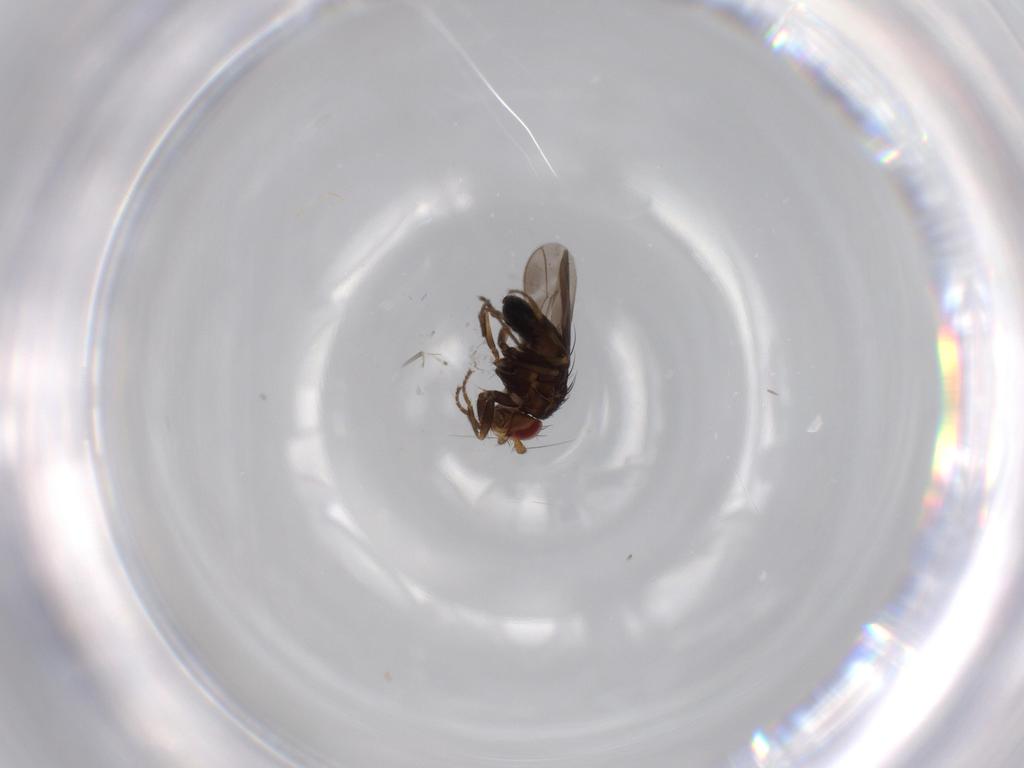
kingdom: Animalia
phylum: Arthropoda
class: Insecta
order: Diptera
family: Sphaeroceridae
